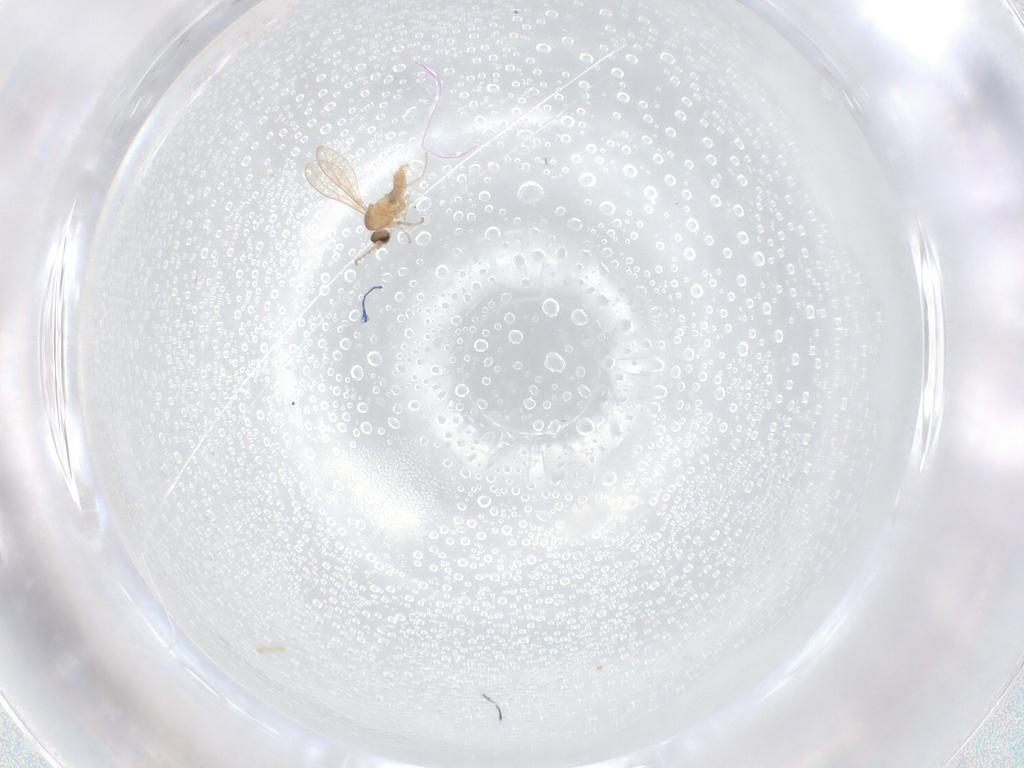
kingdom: Animalia
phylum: Arthropoda
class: Insecta
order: Diptera
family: Cecidomyiidae
